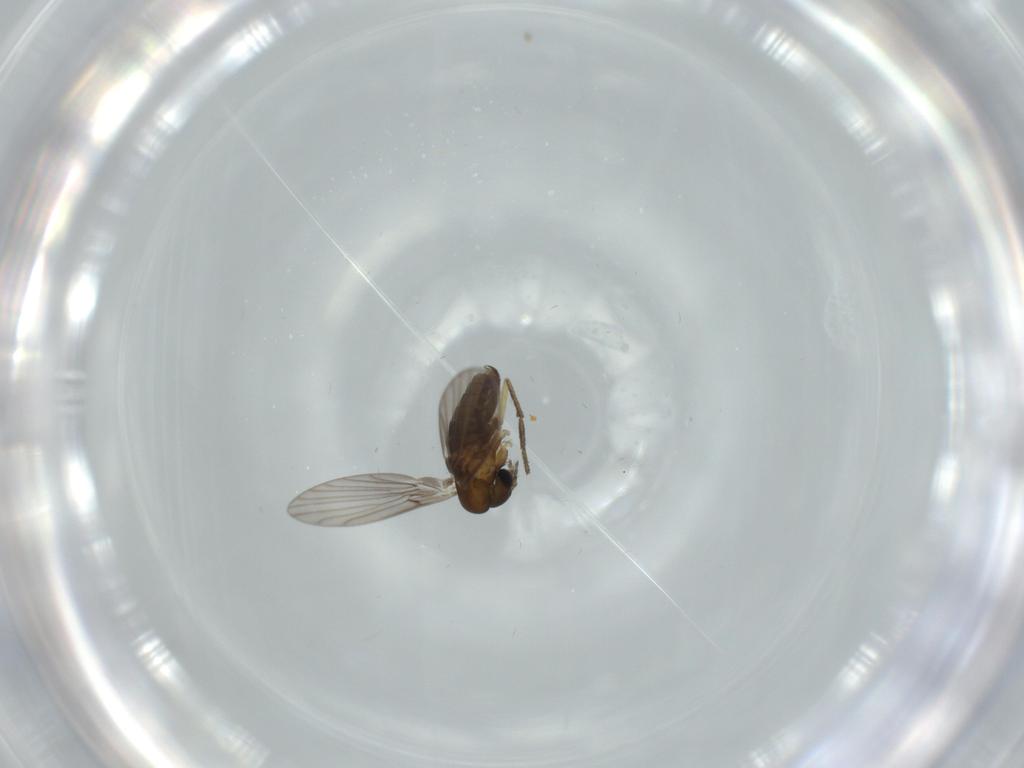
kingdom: Animalia
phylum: Arthropoda
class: Insecta
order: Diptera
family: Psychodidae
